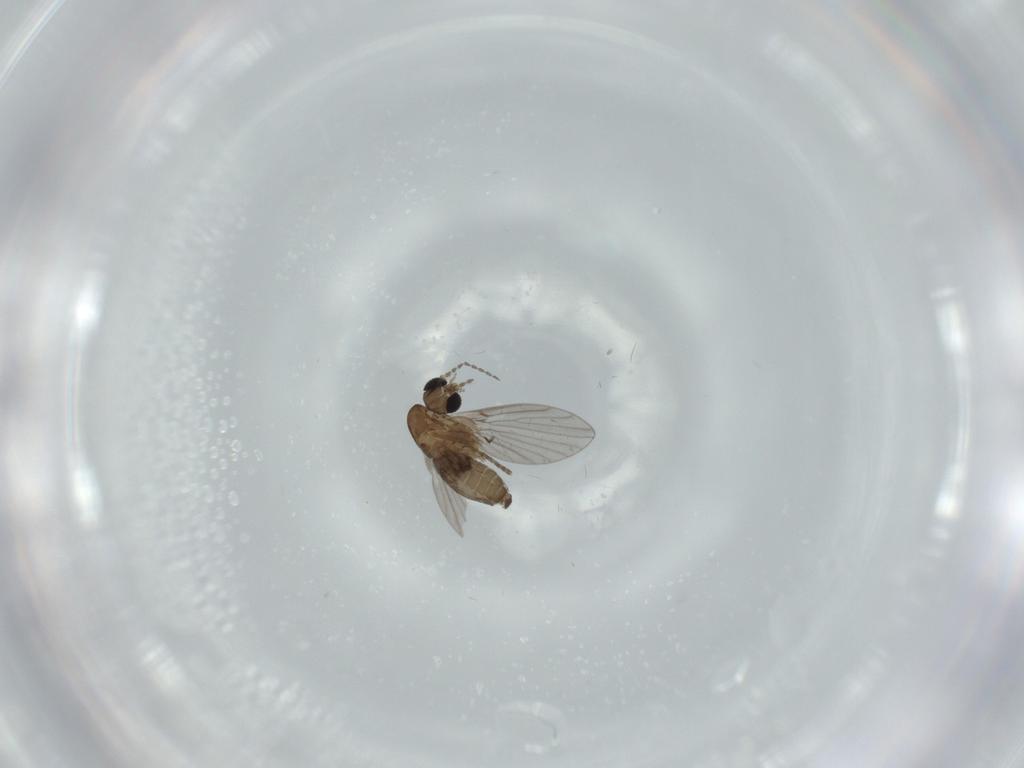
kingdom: Animalia
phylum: Arthropoda
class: Insecta
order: Diptera
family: Psychodidae
